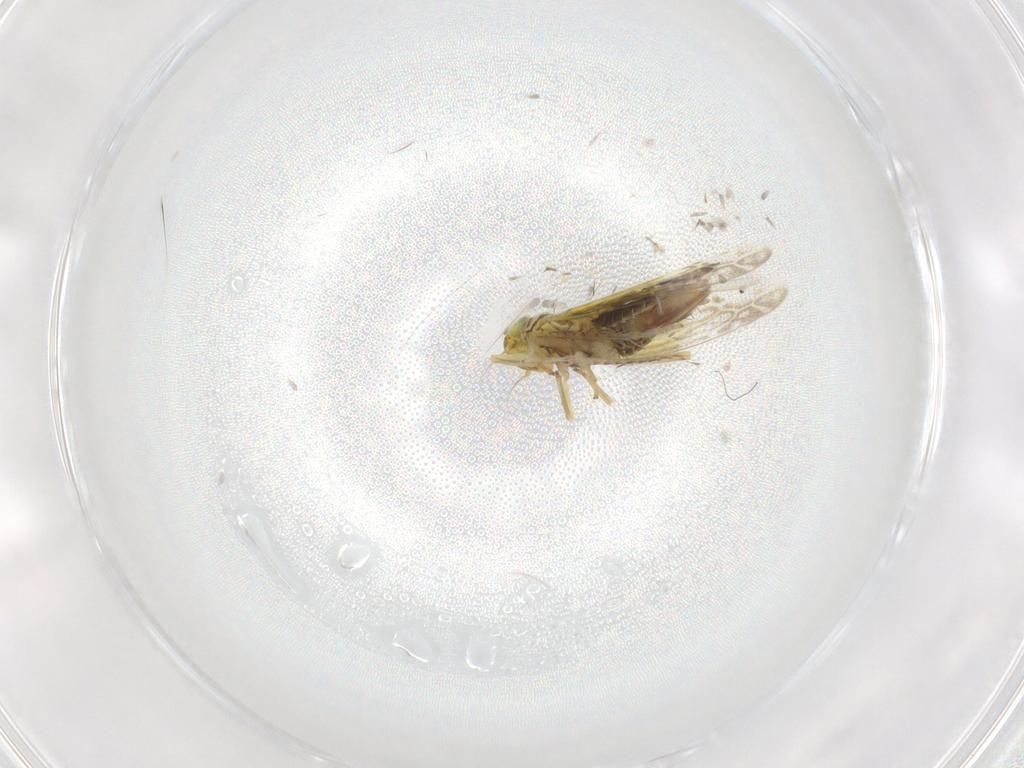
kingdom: Animalia
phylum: Arthropoda
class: Insecta
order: Hemiptera
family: Cicadellidae
